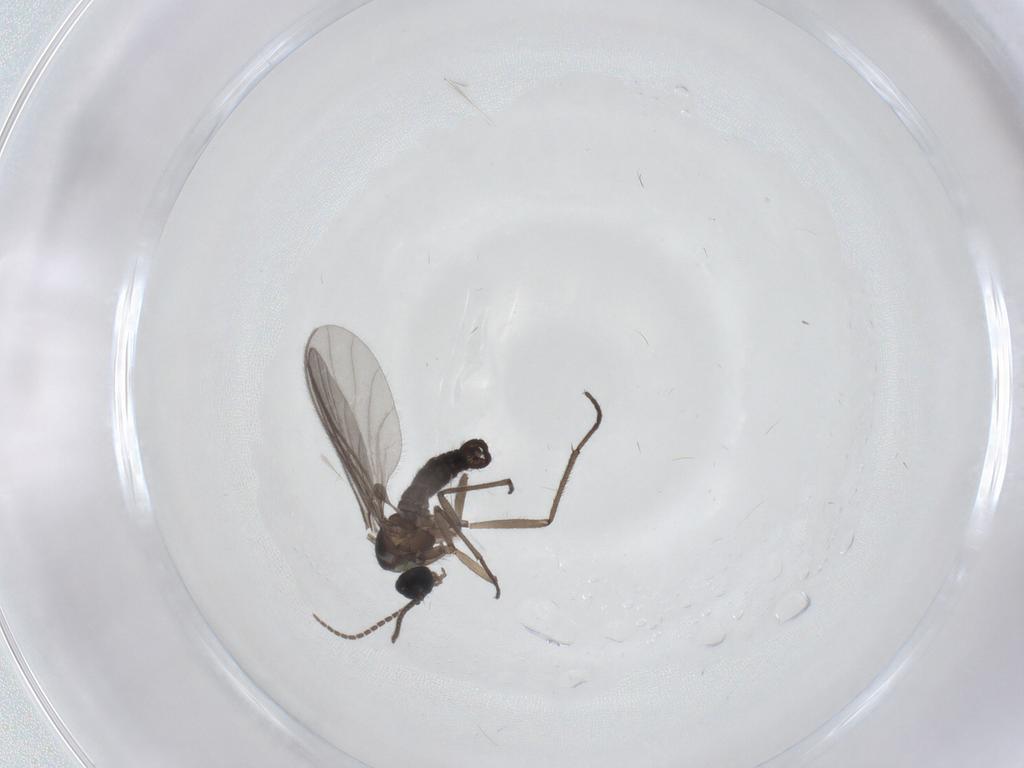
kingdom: Animalia
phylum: Arthropoda
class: Insecta
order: Diptera
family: Sciaridae
